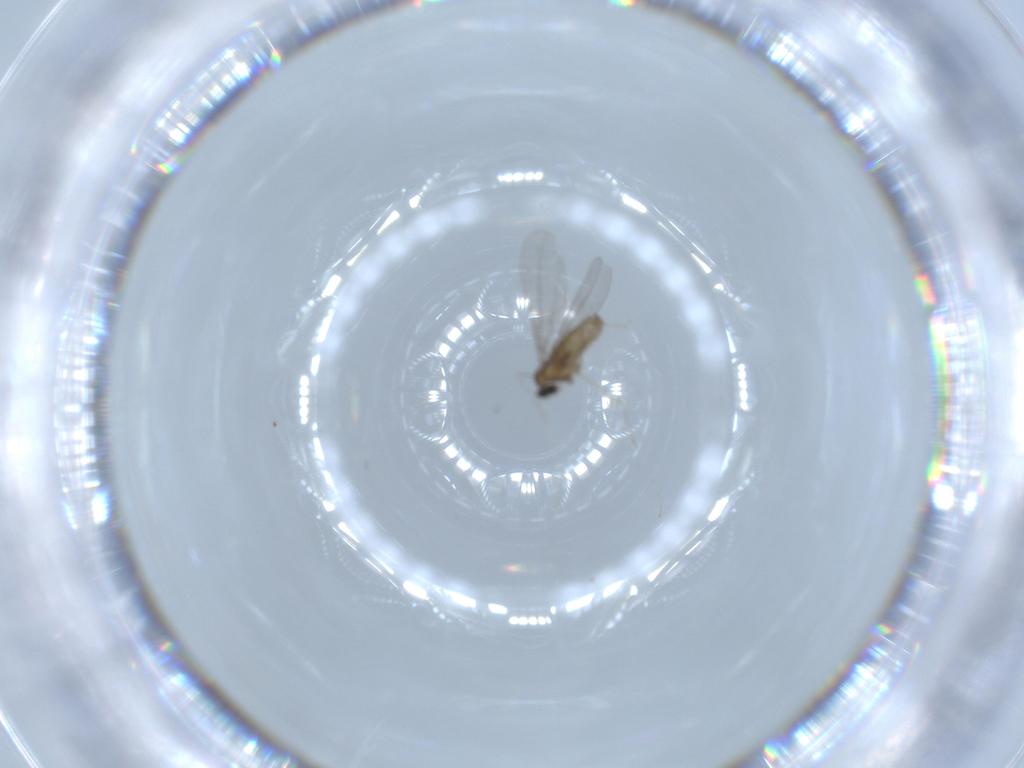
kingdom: Animalia
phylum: Arthropoda
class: Insecta
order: Diptera
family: Cecidomyiidae
